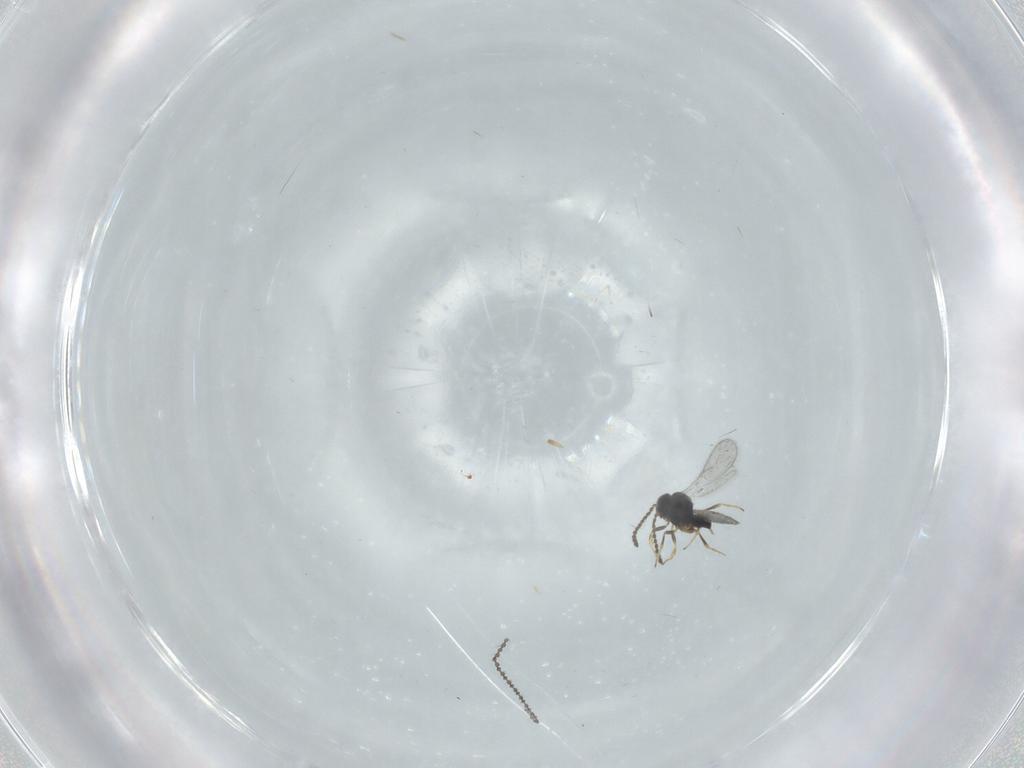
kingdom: Animalia
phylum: Arthropoda
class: Insecta
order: Hymenoptera
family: Scelionidae
